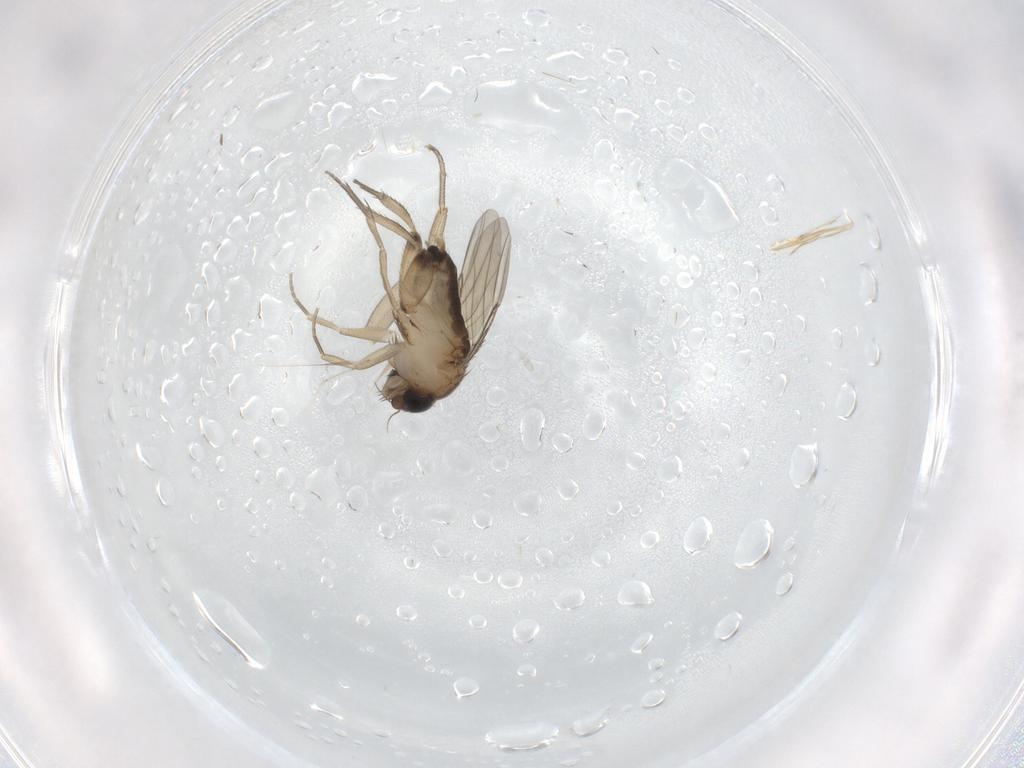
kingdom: Animalia
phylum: Arthropoda
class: Insecta
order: Diptera
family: Phoridae
